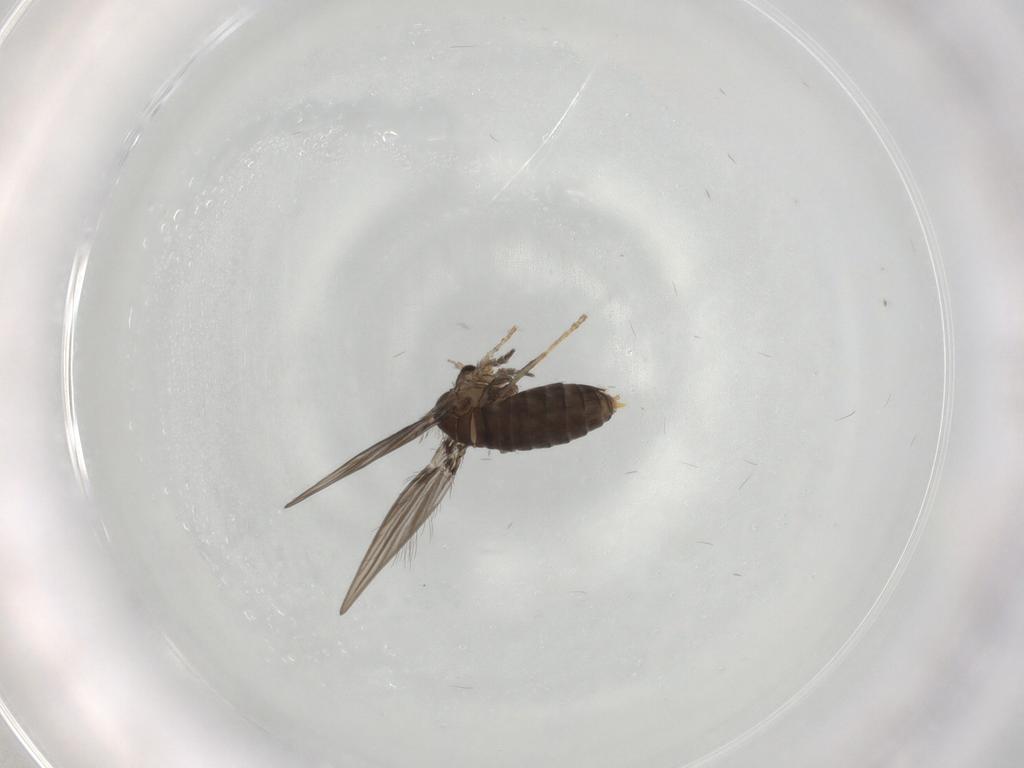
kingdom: Animalia
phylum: Arthropoda
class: Insecta
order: Diptera
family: Psychodidae
